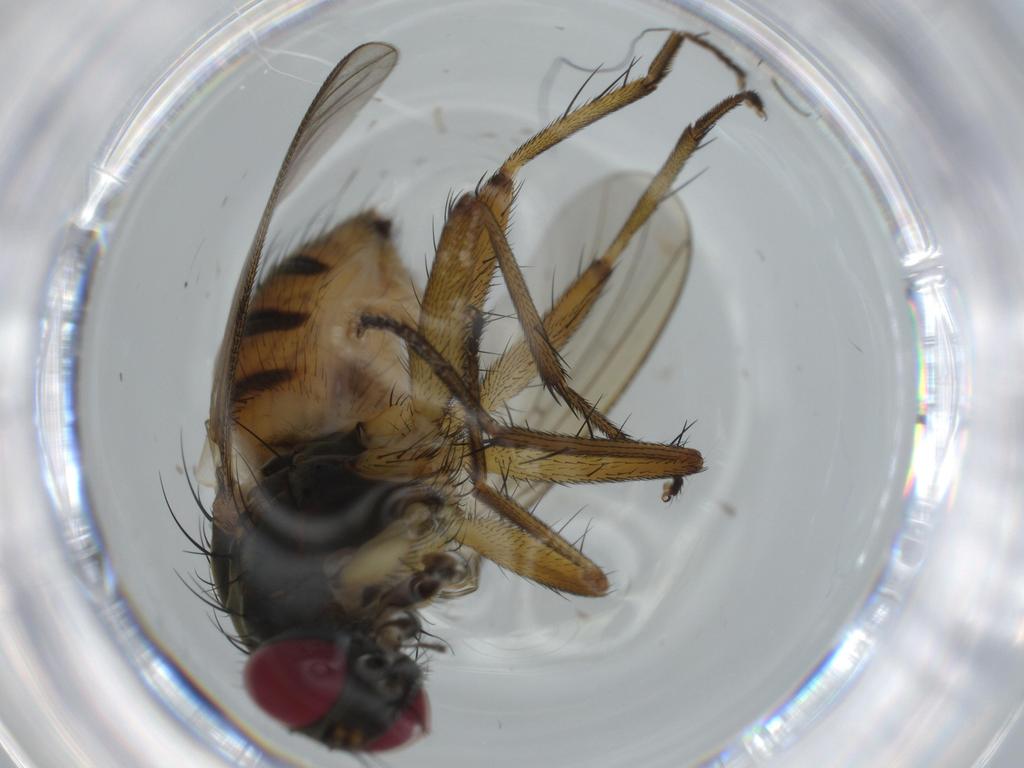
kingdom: Animalia
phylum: Arthropoda
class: Insecta
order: Diptera
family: Muscidae
